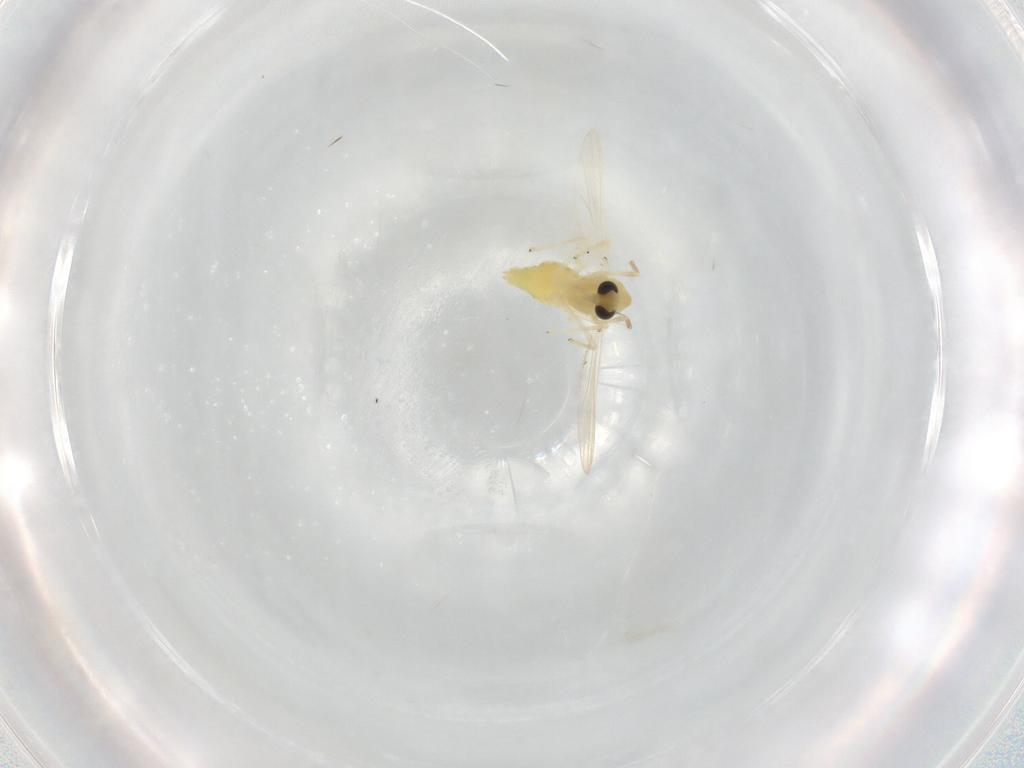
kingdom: Animalia
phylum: Arthropoda
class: Insecta
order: Diptera
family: Chironomidae
